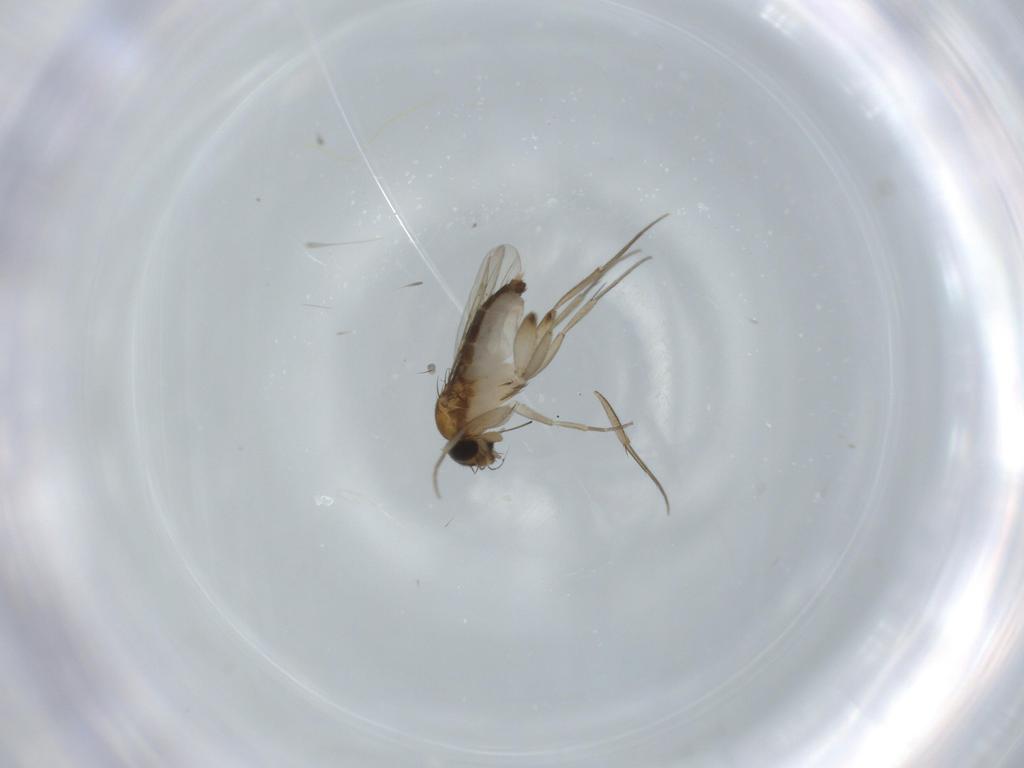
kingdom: Animalia
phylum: Arthropoda
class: Insecta
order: Diptera
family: Phoridae
